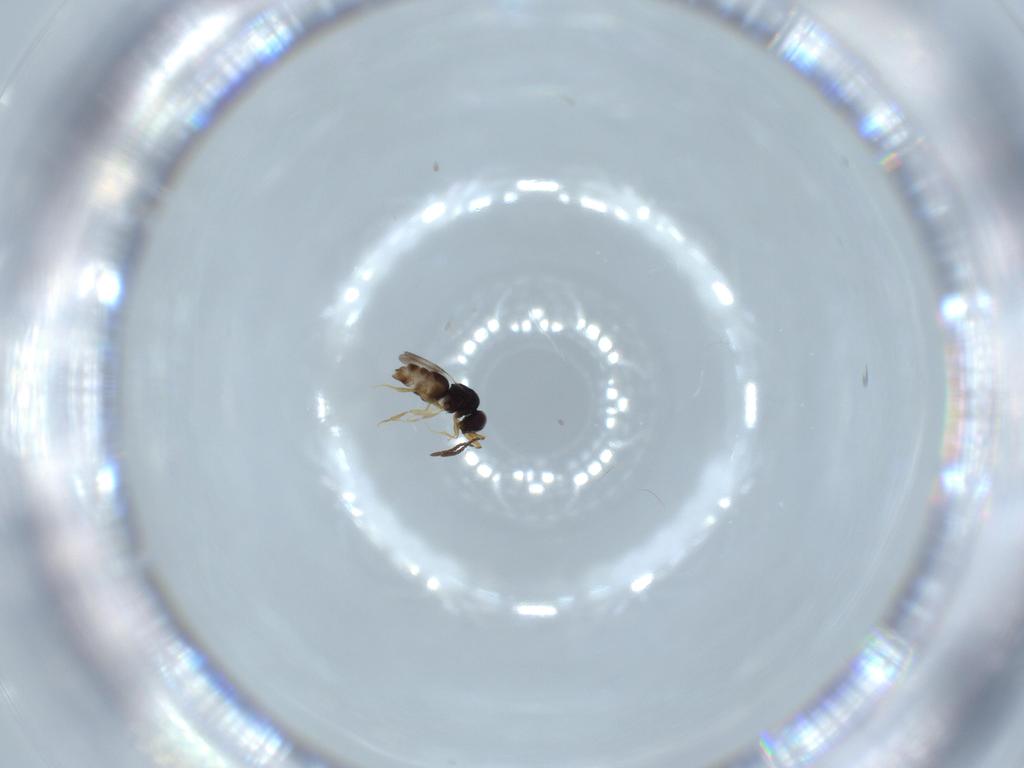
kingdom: Animalia
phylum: Arthropoda
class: Insecta
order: Hymenoptera
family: Ceraphronidae
